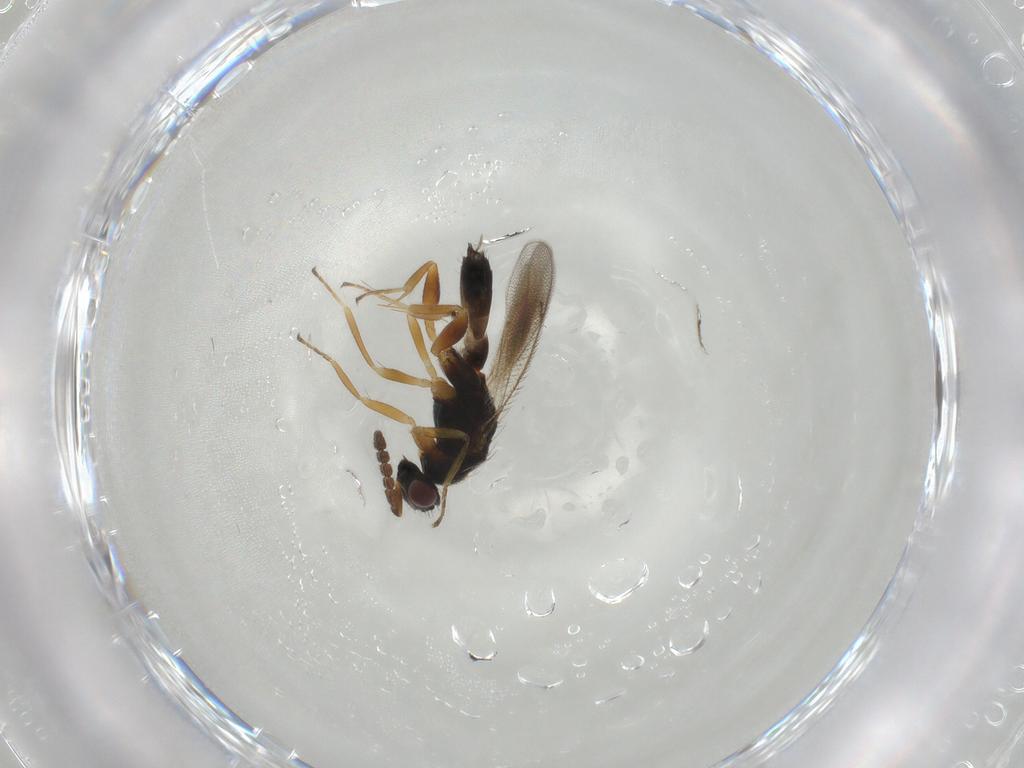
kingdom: Animalia
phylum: Arthropoda
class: Insecta
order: Hymenoptera
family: Eulophidae
